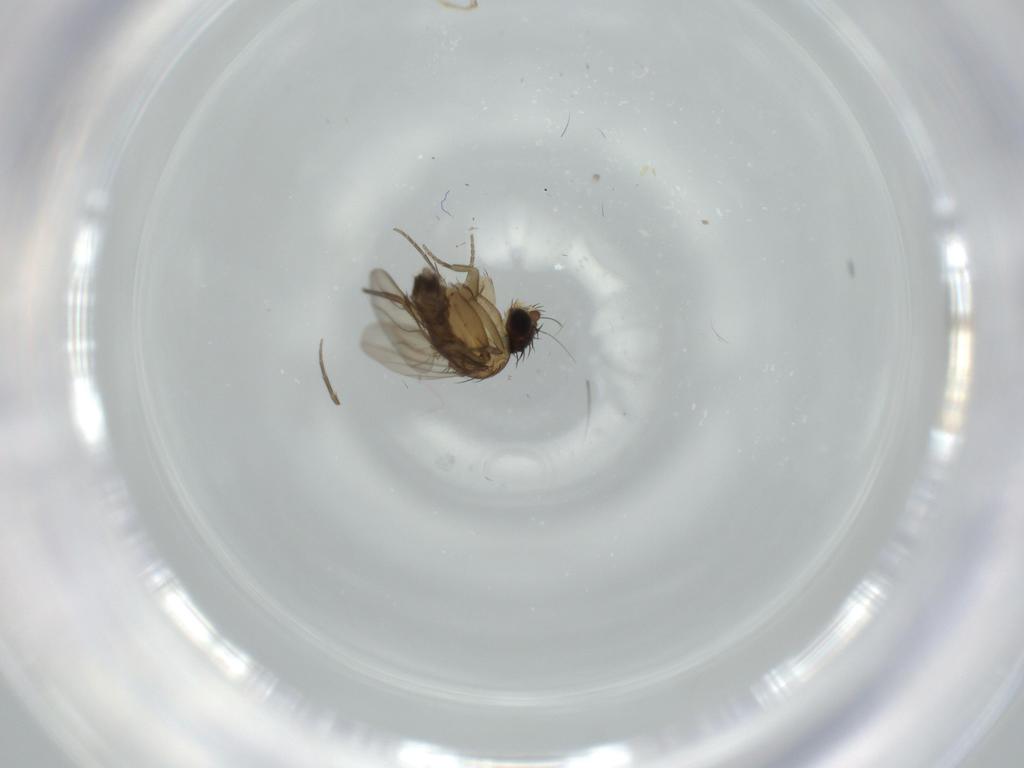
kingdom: Animalia
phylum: Arthropoda
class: Insecta
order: Diptera
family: Phoridae
